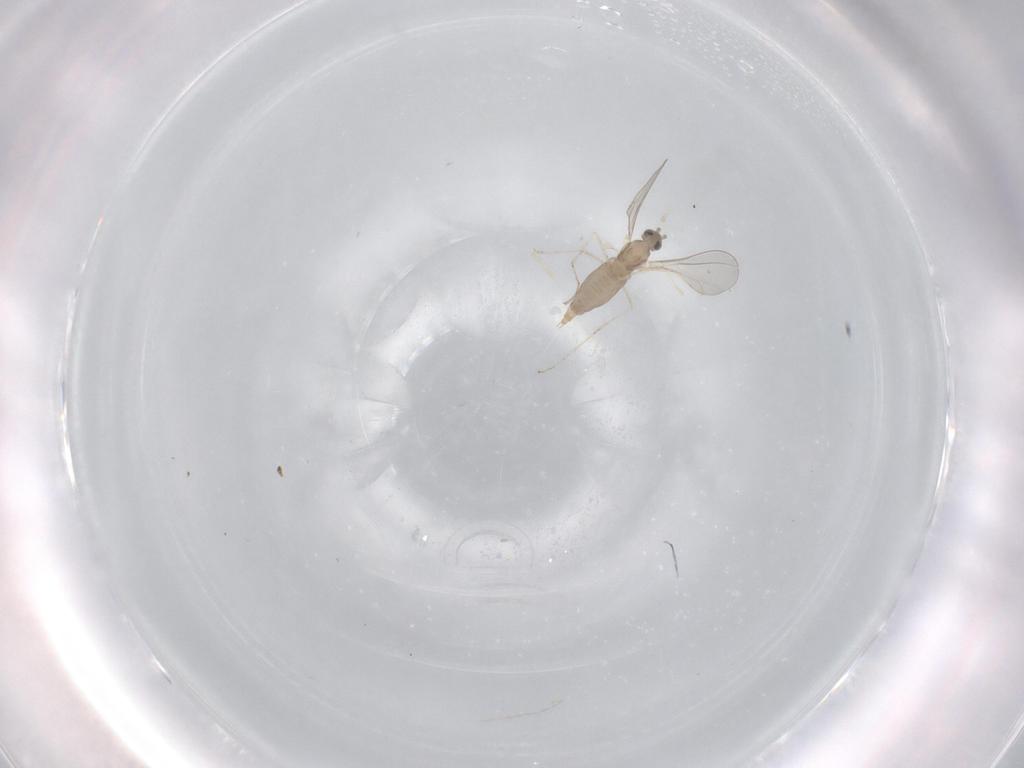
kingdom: Animalia
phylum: Arthropoda
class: Insecta
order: Diptera
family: Cecidomyiidae
